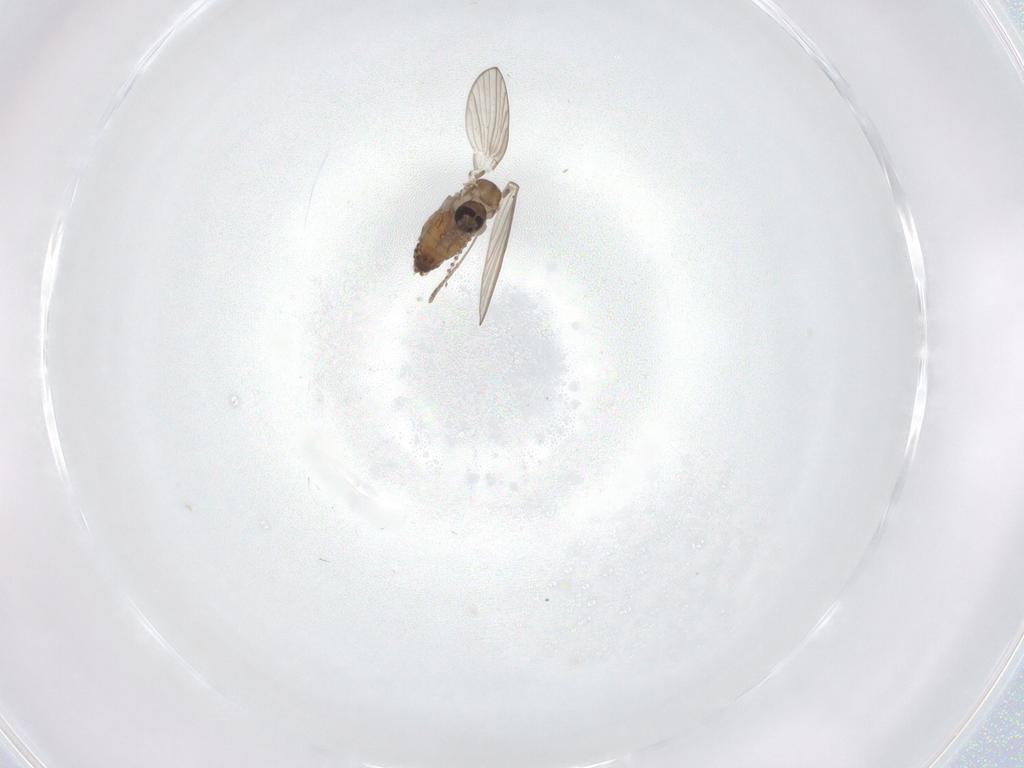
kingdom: Animalia
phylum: Arthropoda
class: Insecta
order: Diptera
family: Psychodidae
